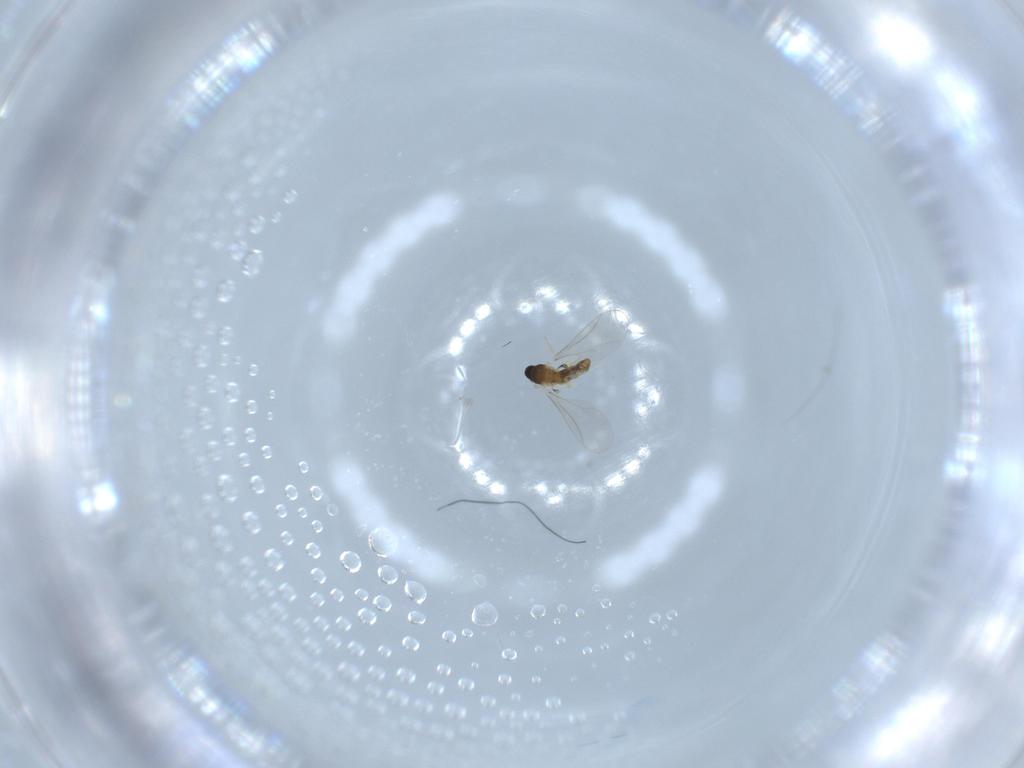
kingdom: Animalia
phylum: Arthropoda
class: Insecta
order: Diptera
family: Cecidomyiidae
